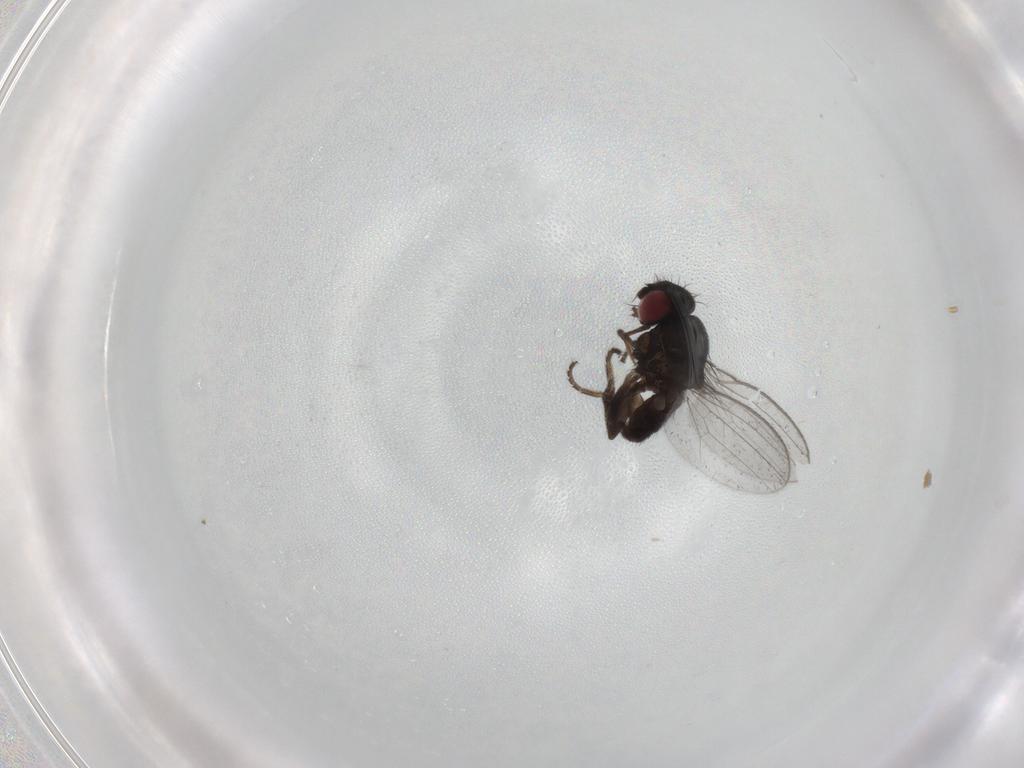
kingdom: Animalia
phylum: Arthropoda
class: Insecta
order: Diptera
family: Milichiidae
